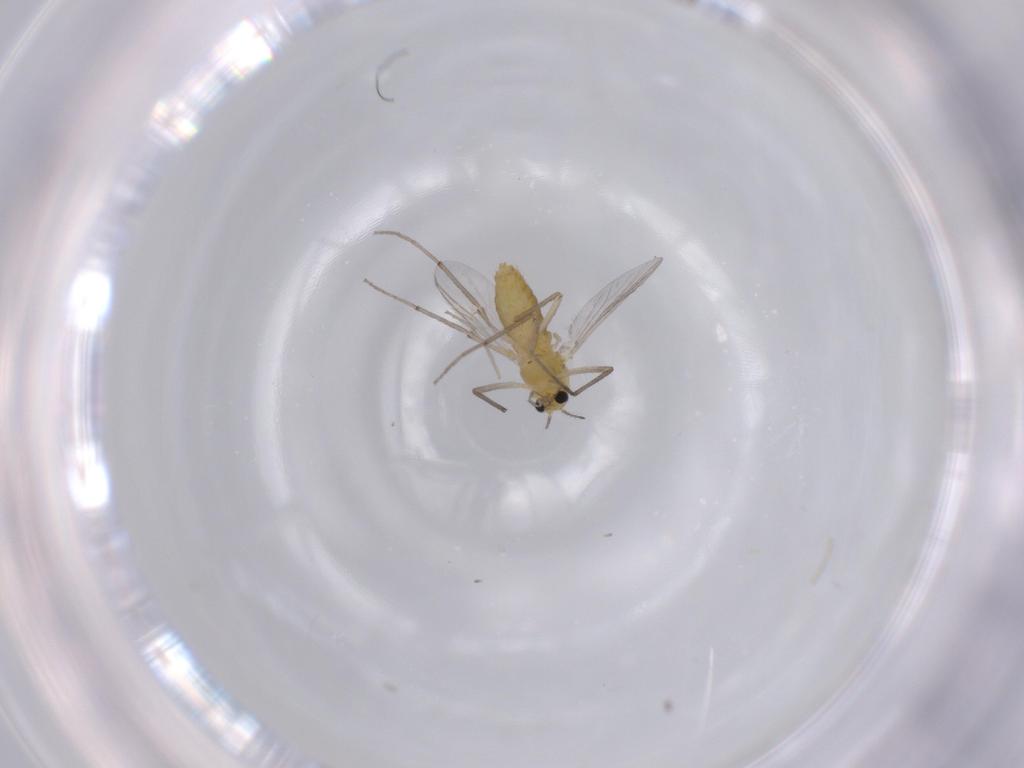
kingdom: Animalia
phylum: Arthropoda
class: Insecta
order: Diptera
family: Chironomidae
